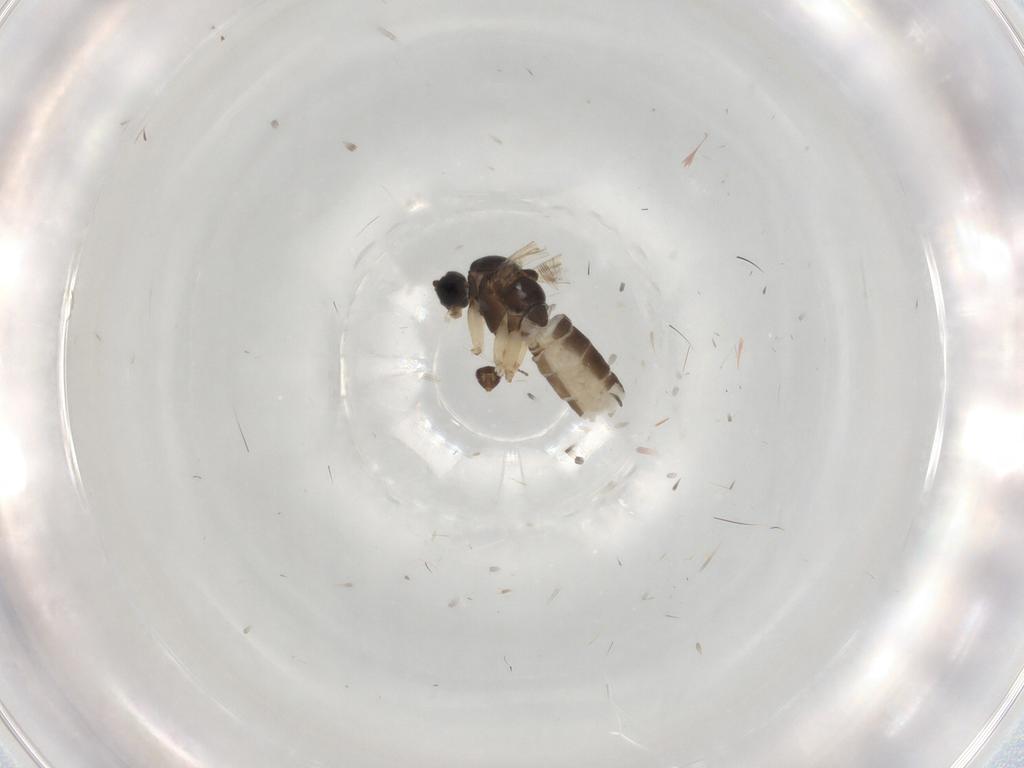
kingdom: Animalia
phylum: Arthropoda
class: Insecta
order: Diptera
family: Sciaridae
